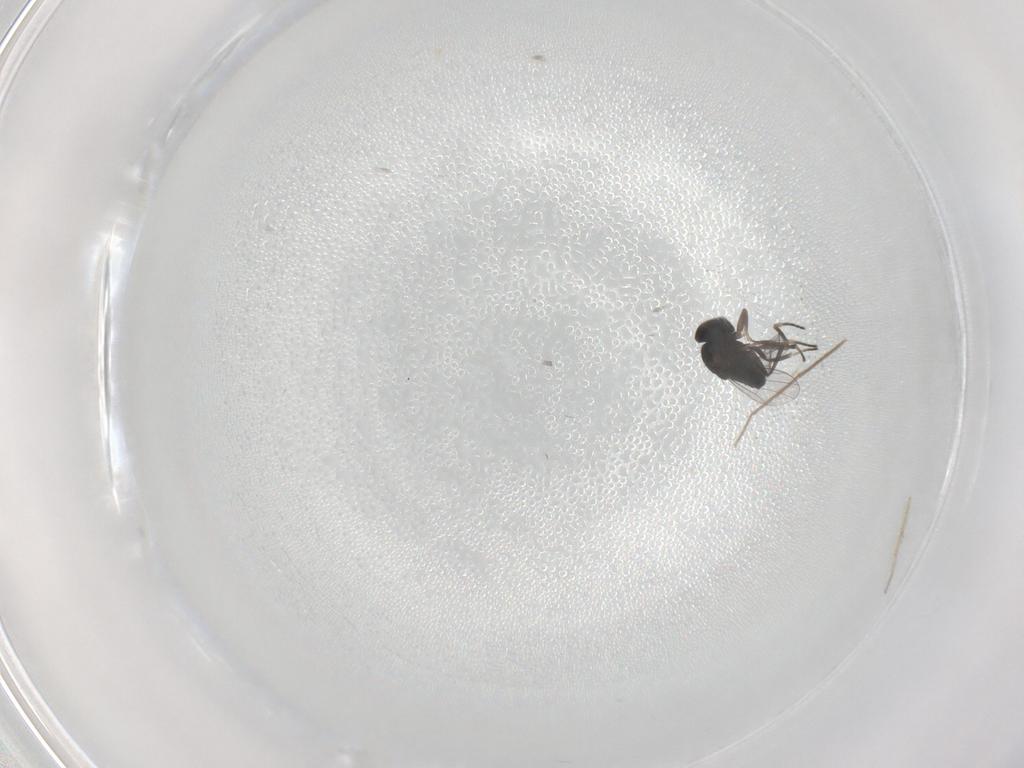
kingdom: Animalia
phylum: Arthropoda
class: Insecta
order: Diptera
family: Dolichopodidae
